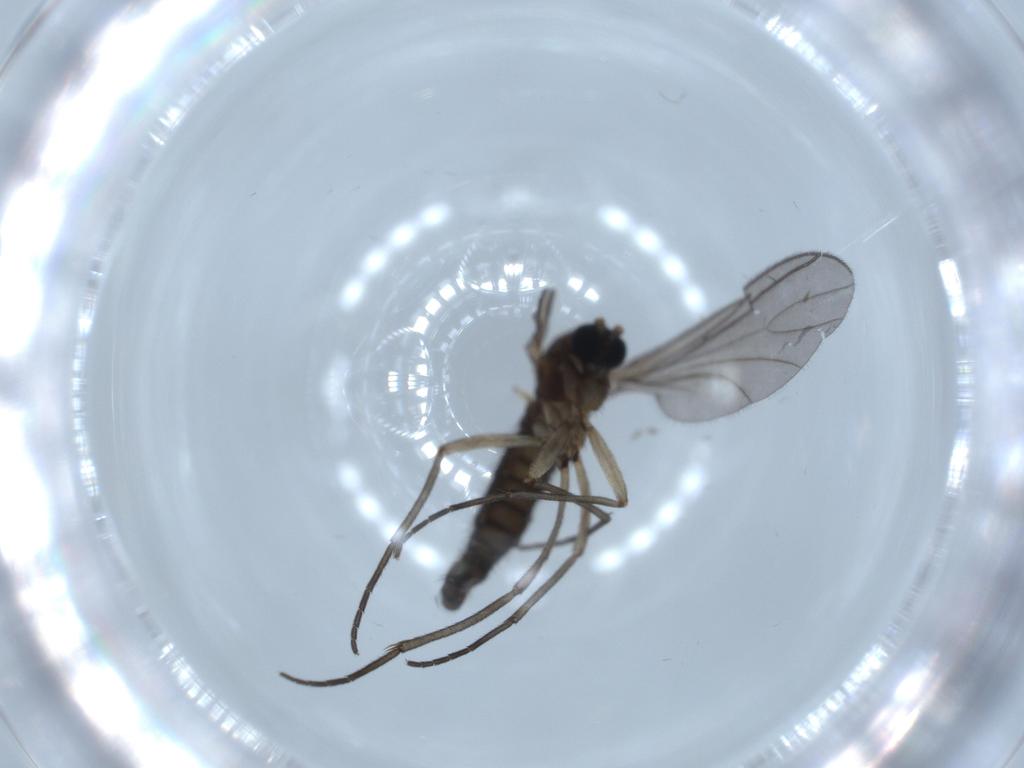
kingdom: Animalia
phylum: Arthropoda
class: Insecta
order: Diptera
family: Sciaridae
